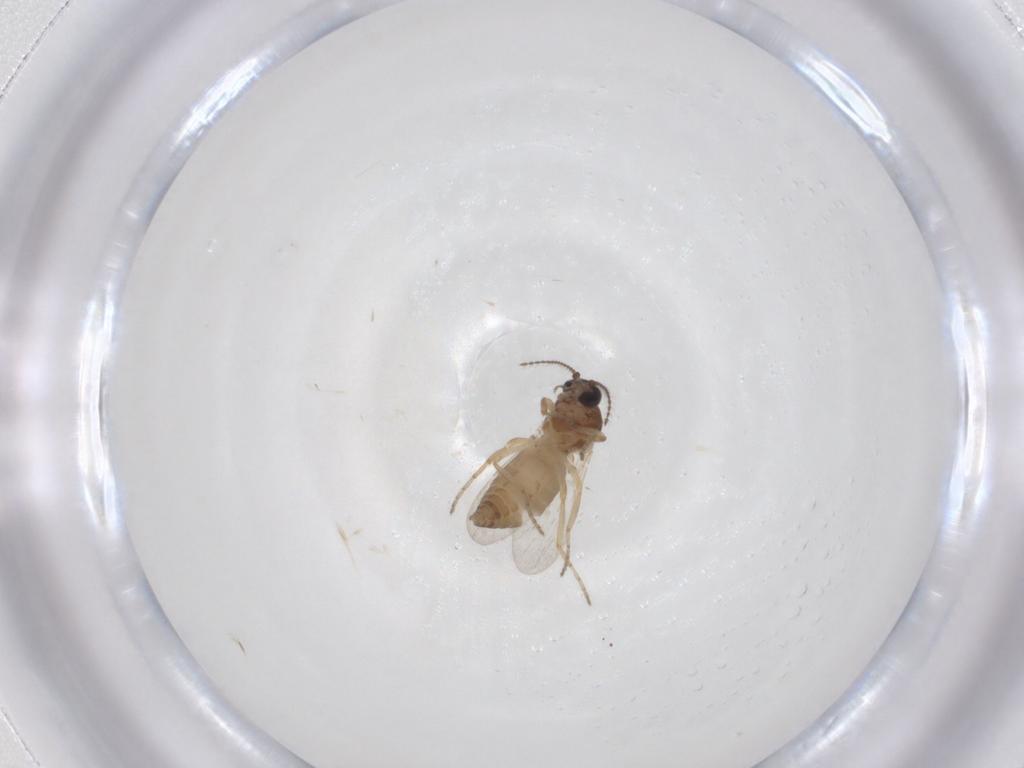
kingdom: Animalia
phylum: Arthropoda
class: Insecta
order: Diptera
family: Ceratopogonidae
